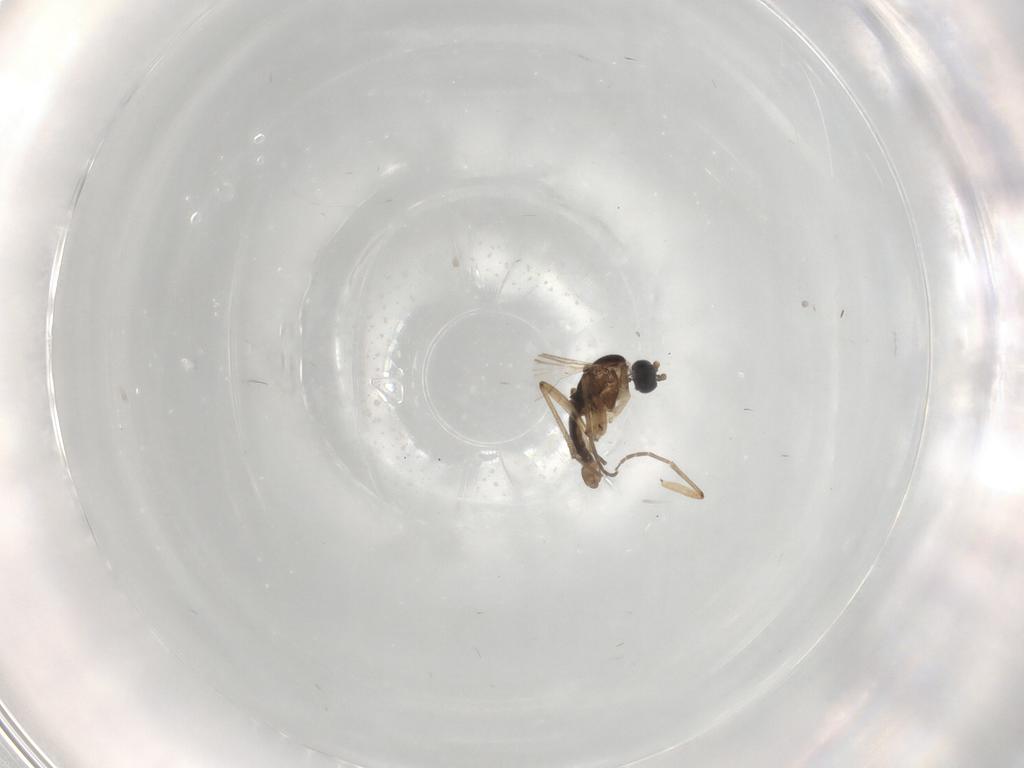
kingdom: Animalia
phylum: Arthropoda
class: Insecta
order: Diptera
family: Sciaridae
